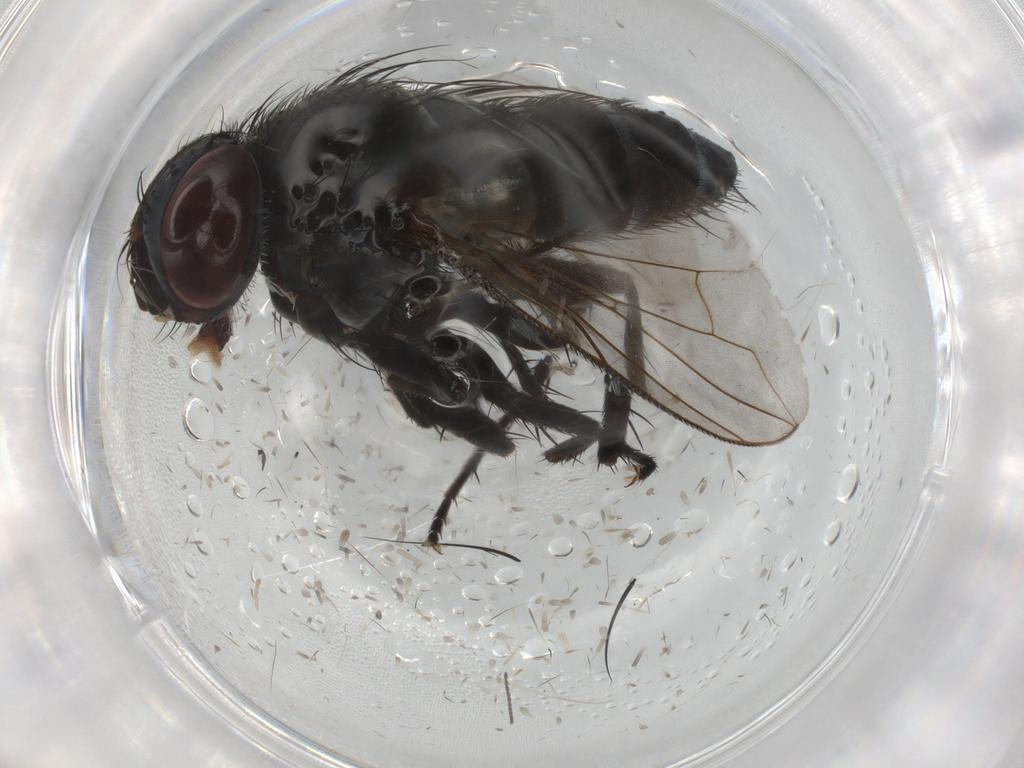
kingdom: Animalia
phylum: Arthropoda
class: Insecta
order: Diptera
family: Tachinidae
